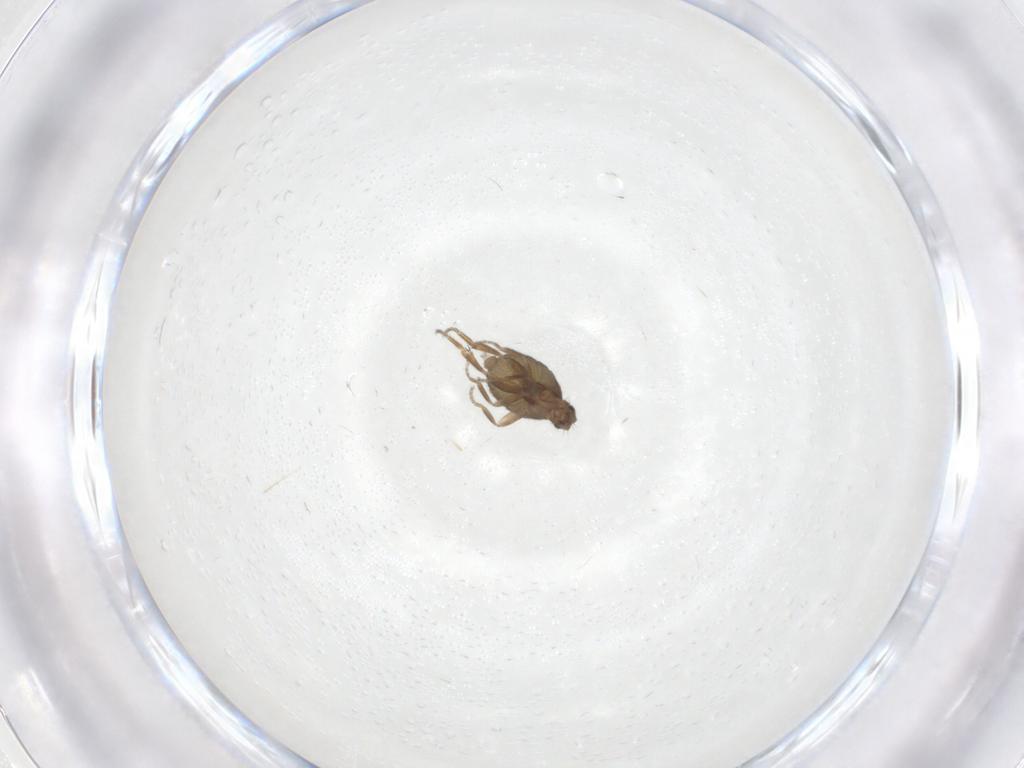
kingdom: Animalia
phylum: Arthropoda
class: Insecta
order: Diptera
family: Phoridae
